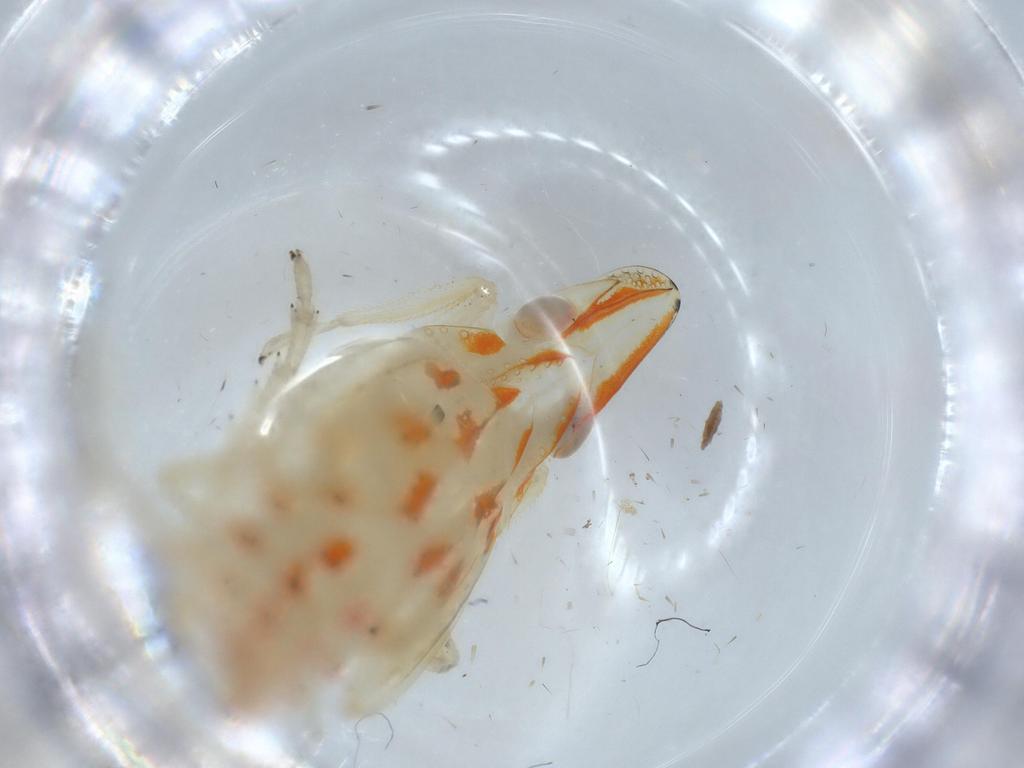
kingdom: Animalia
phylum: Arthropoda
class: Insecta
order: Hemiptera
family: Tropiduchidae
